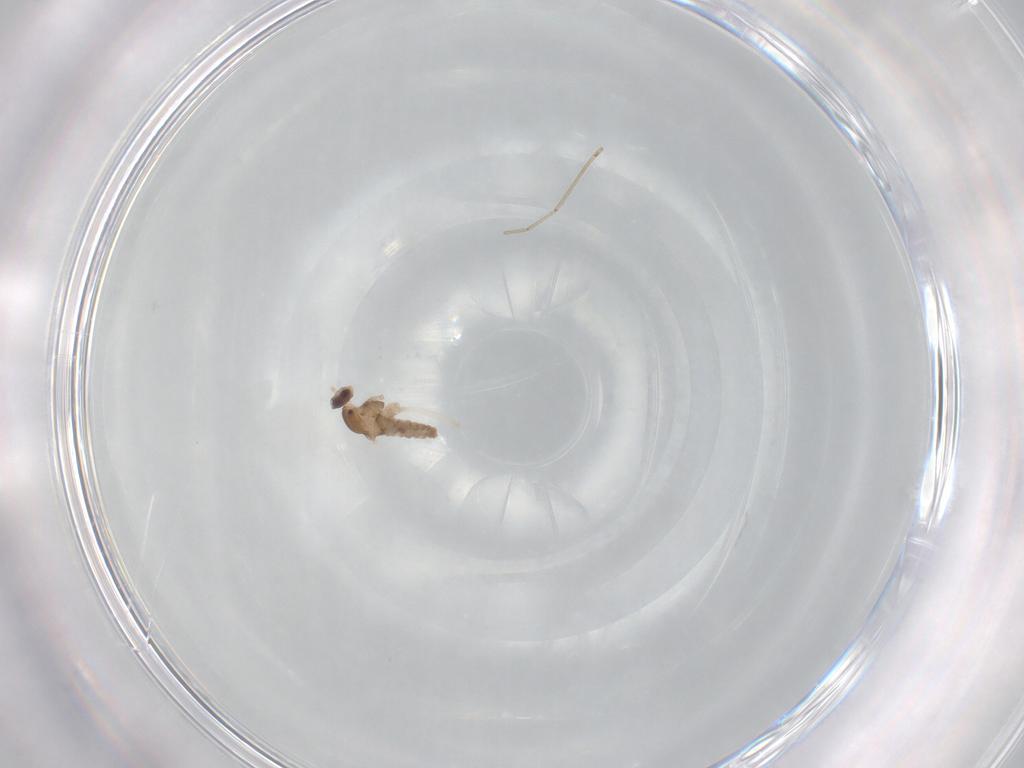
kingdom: Animalia
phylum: Arthropoda
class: Insecta
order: Diptera
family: Cecidomyiidae
